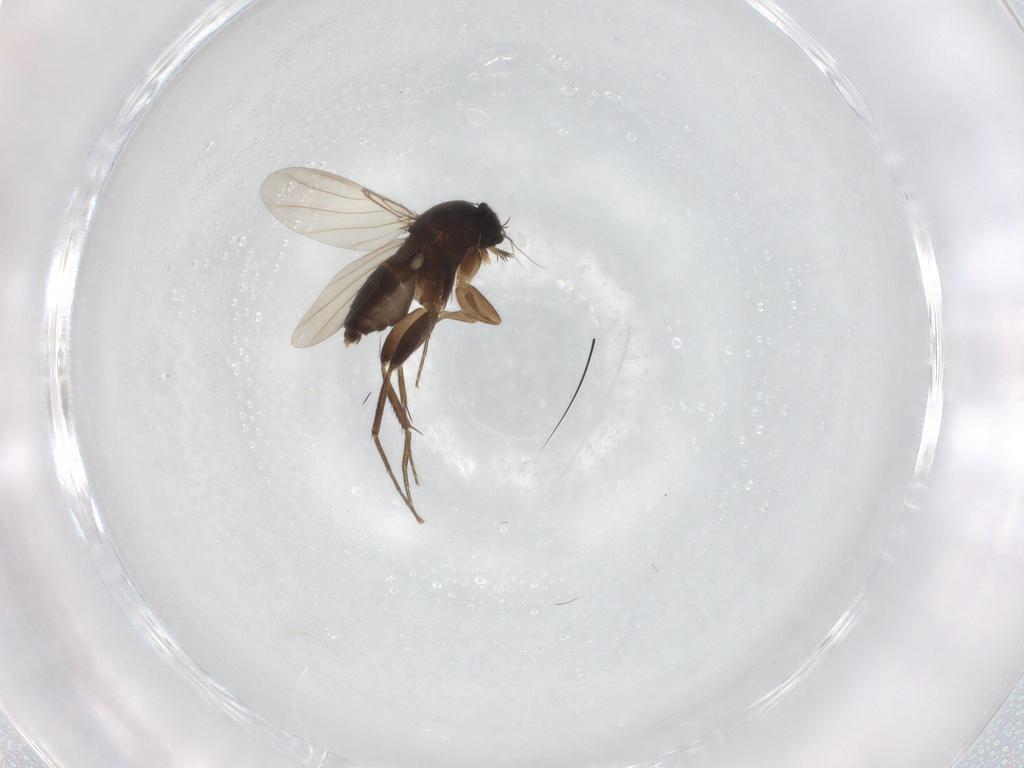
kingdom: Animalia
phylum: Arthropoda
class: Insecta
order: Diptera
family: Phoridae
